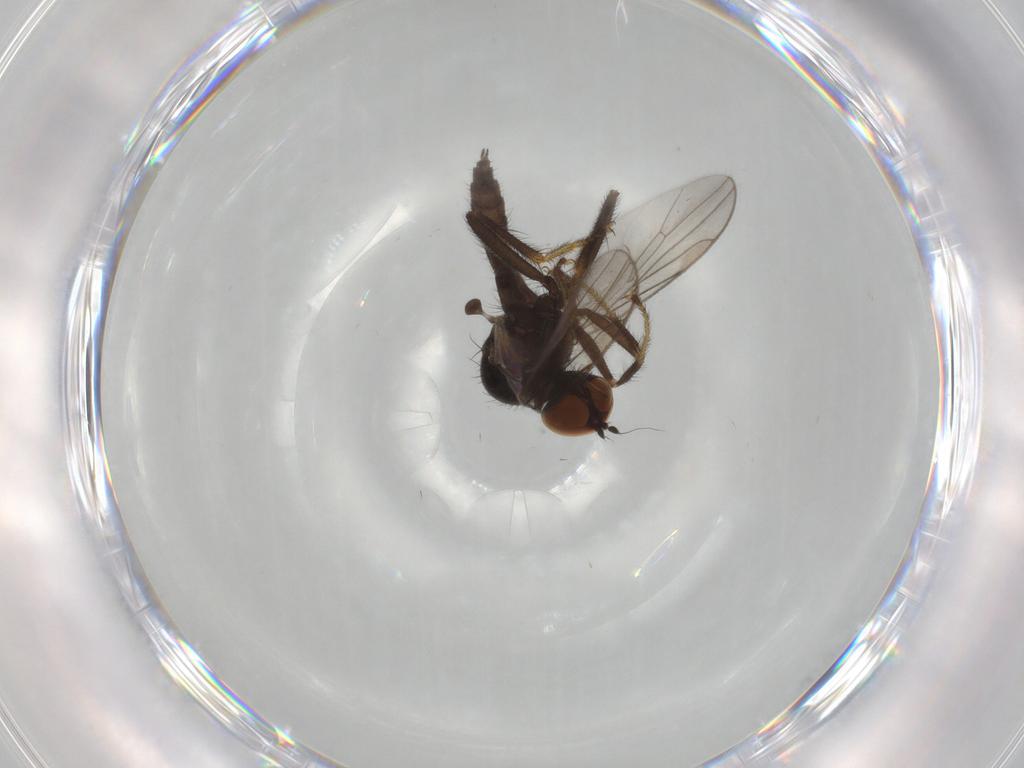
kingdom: Animalia
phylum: Arthropoda
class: Insecta
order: Diptera
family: Hybotidae
